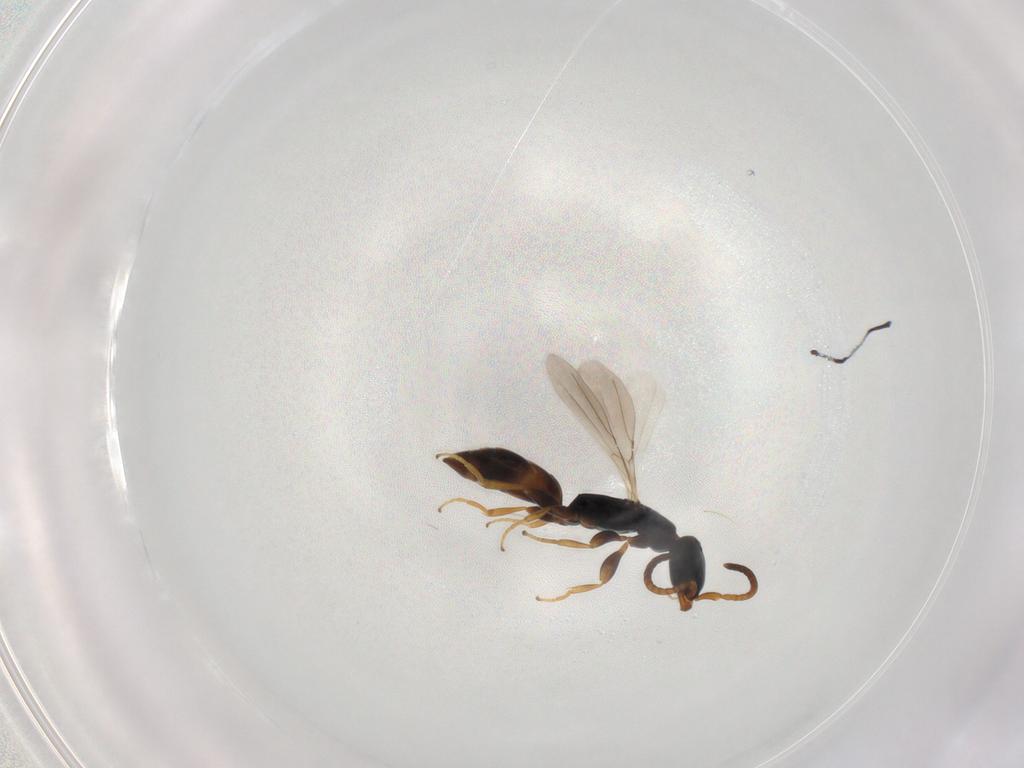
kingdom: Animalia
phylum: Arthropoda
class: Insecta
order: Hymenoptera
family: Bethylidae
